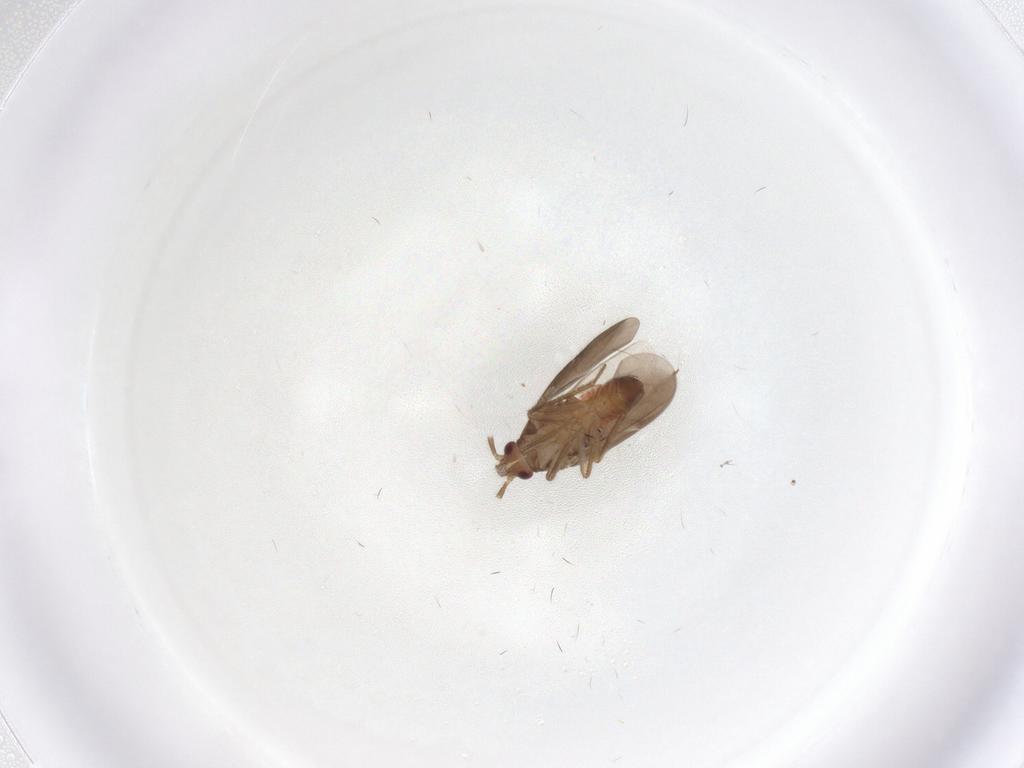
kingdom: Animalia
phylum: Arthropoda
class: Insecta
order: Hemiptera
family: Ceratocombidae
